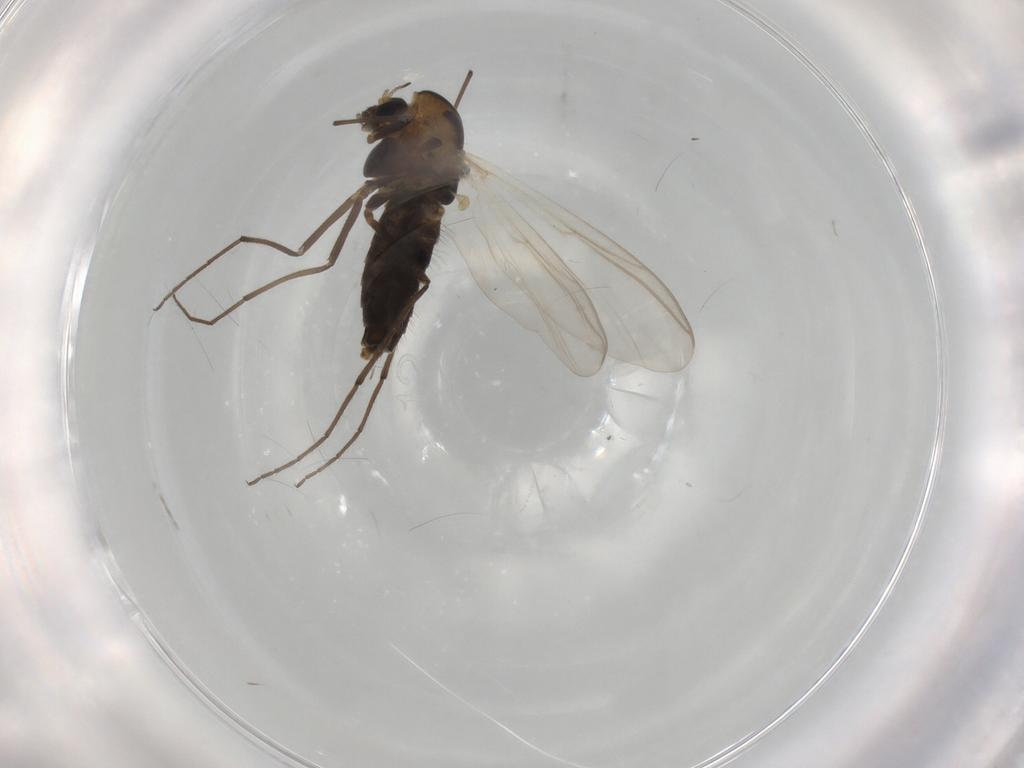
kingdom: Animalia
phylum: Arthropoda
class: Insecta
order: Diptera
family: Chironomidae
